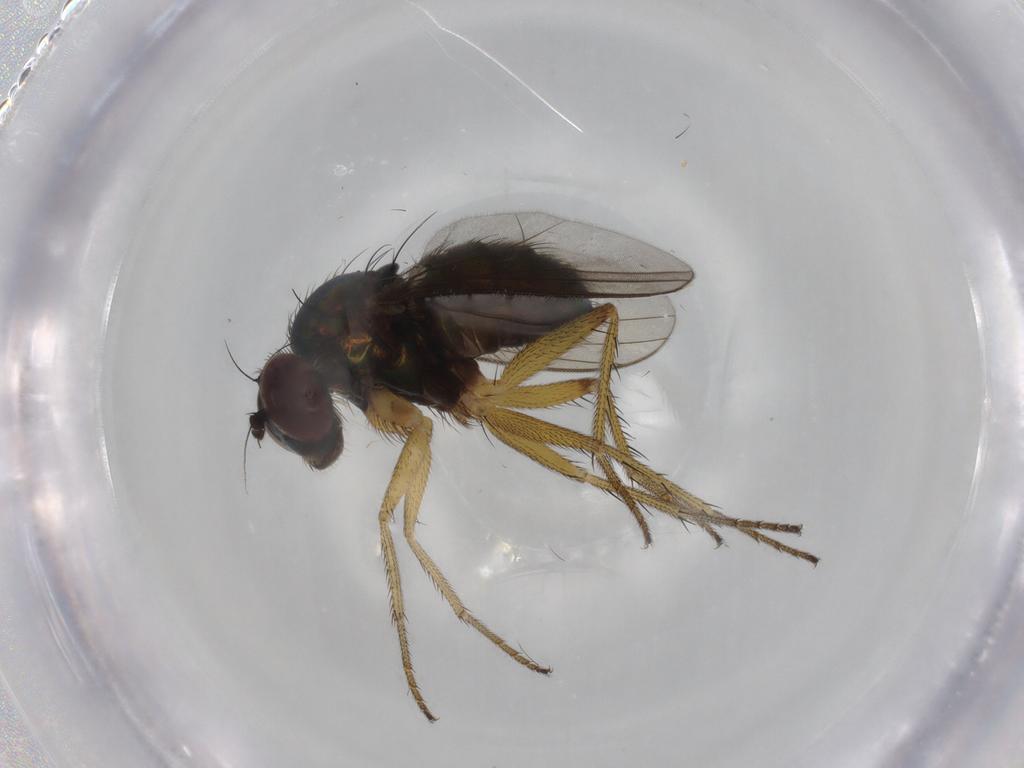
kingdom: Animalia
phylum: Arthropoda
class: Insecta
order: Diptera
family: Dolichopodidae
